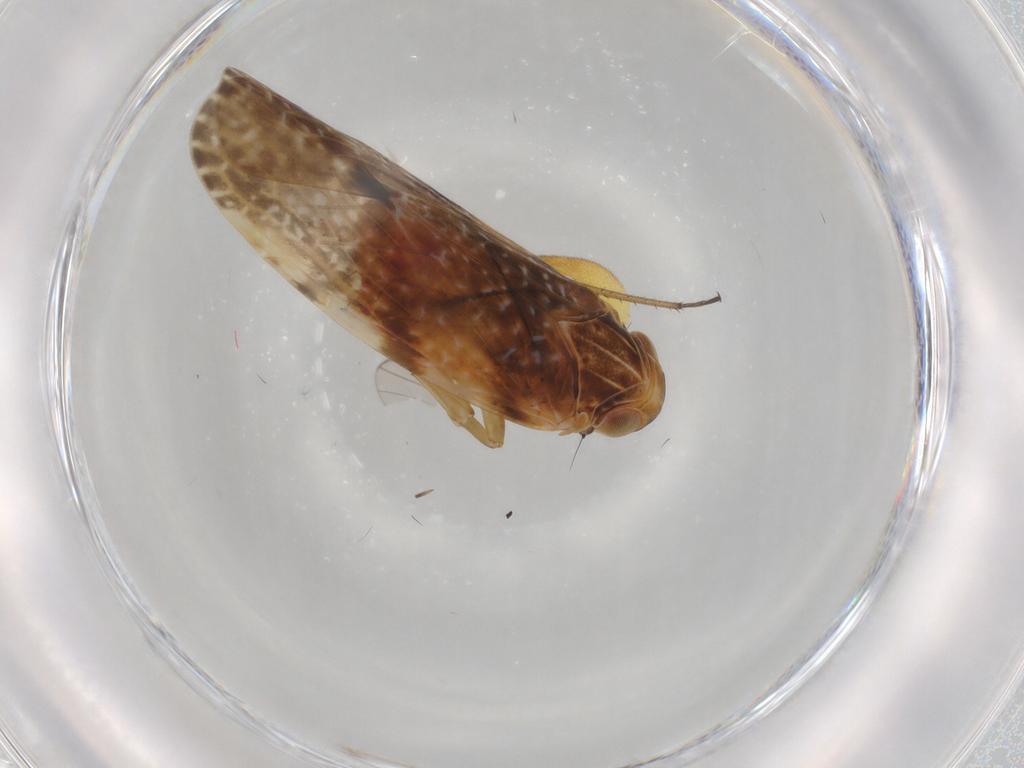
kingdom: Animalia
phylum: Arthropoda
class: Insecta
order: Hemiptera
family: Achilidae
